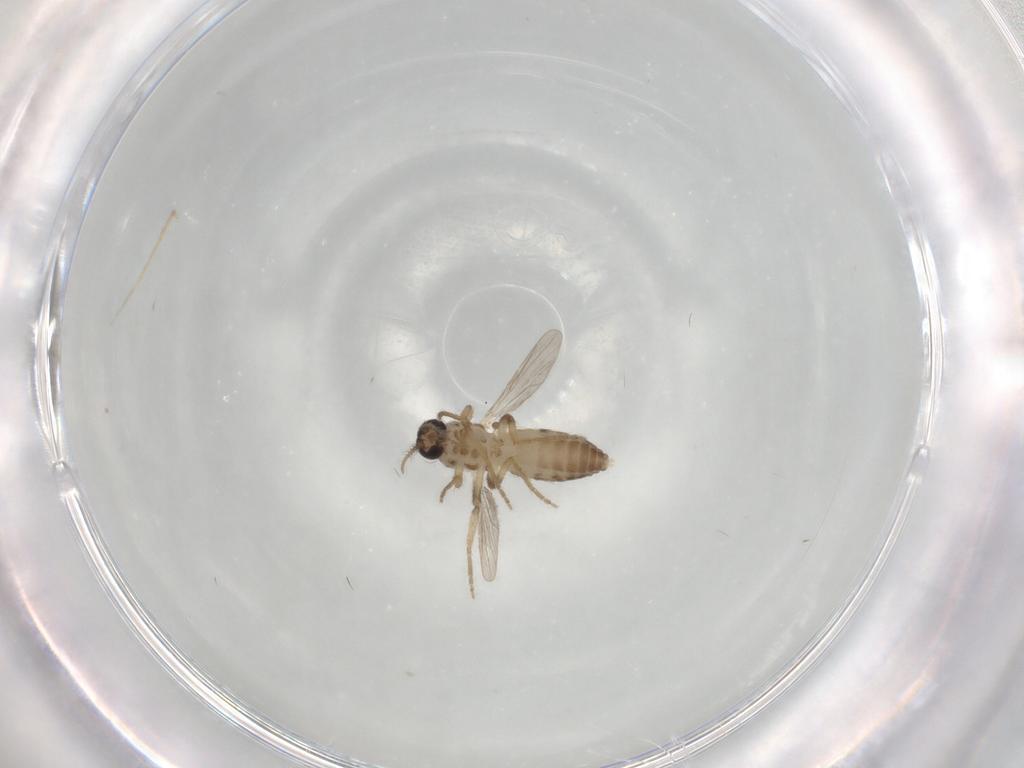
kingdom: Animalia
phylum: Arthropoda
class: Insecta
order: Diptera
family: Ceratopogonidae
